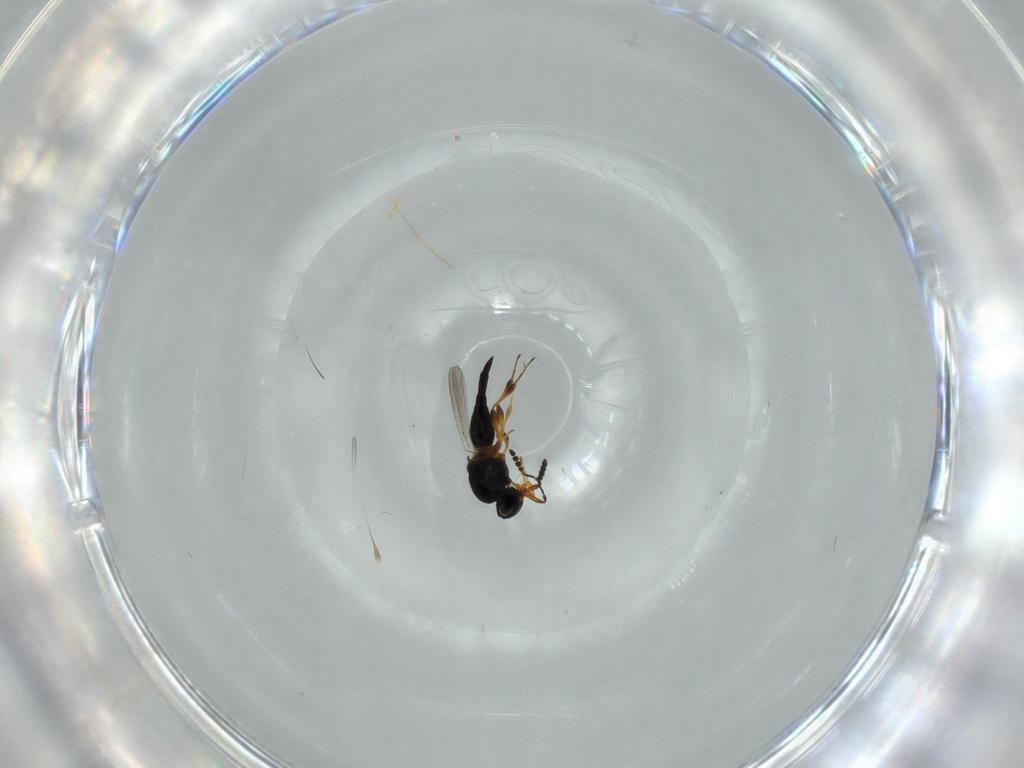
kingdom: Animalia
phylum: Arthropoda
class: Insecta
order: Hymenoptera
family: Platygastridae
